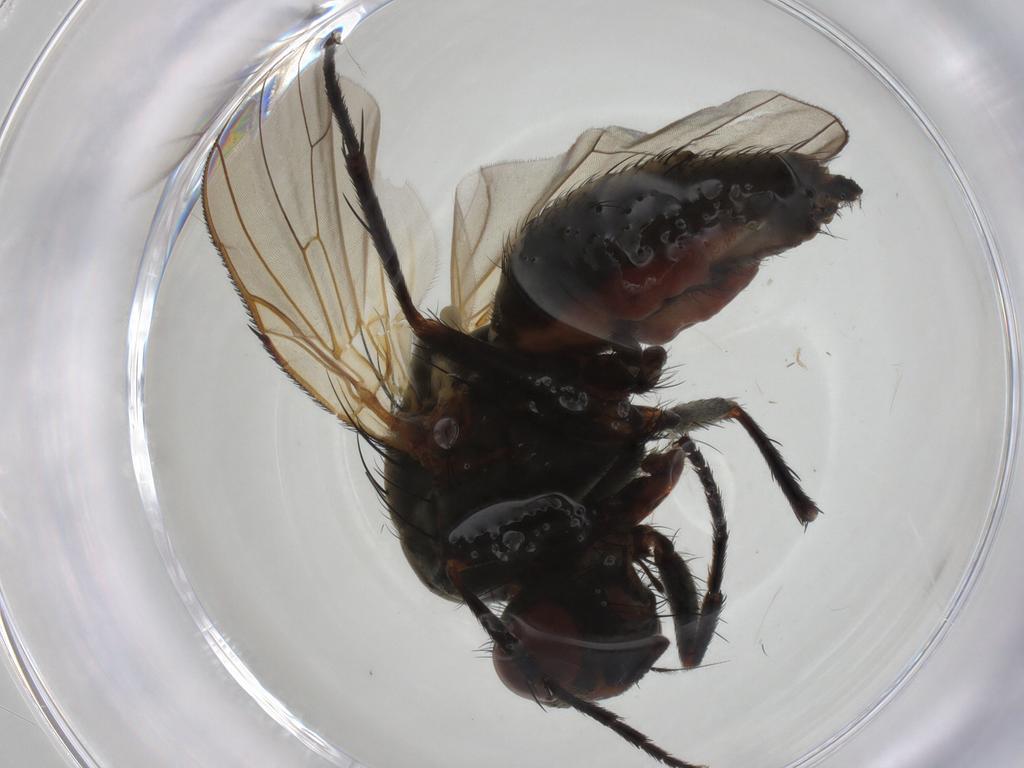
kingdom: Animalia
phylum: Arthropoda
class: Insecta
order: Diptera
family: Anthomyiidae
